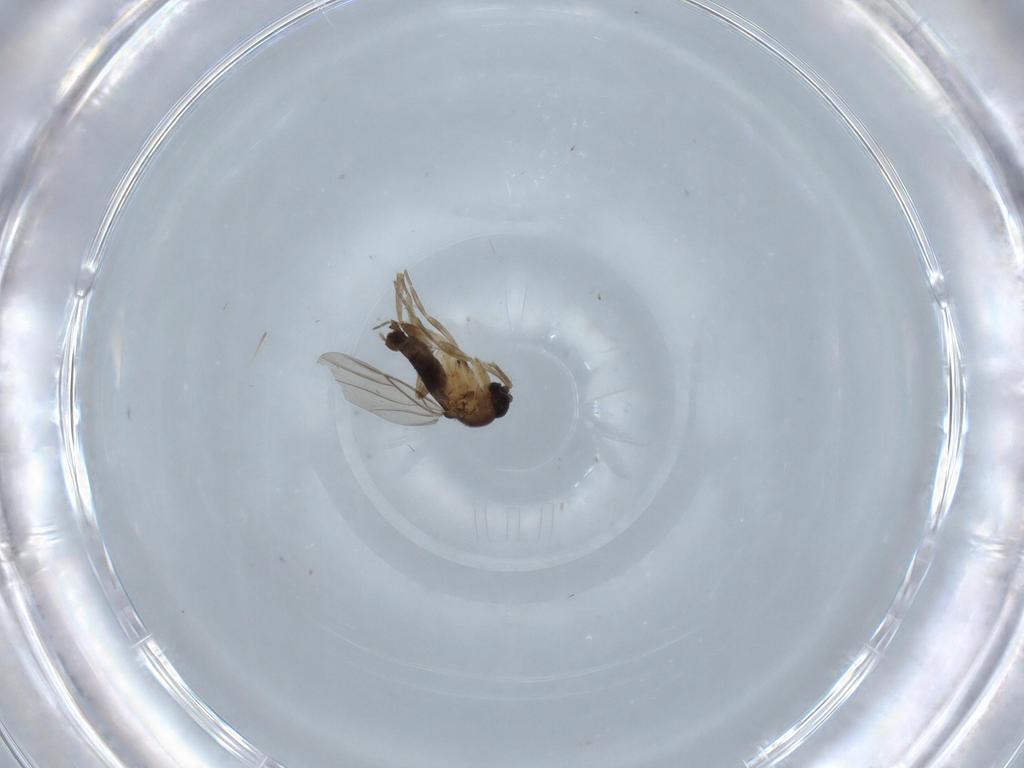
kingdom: Animalia
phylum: Arthropoda
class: Insecta
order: Diptera
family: Phoridae
